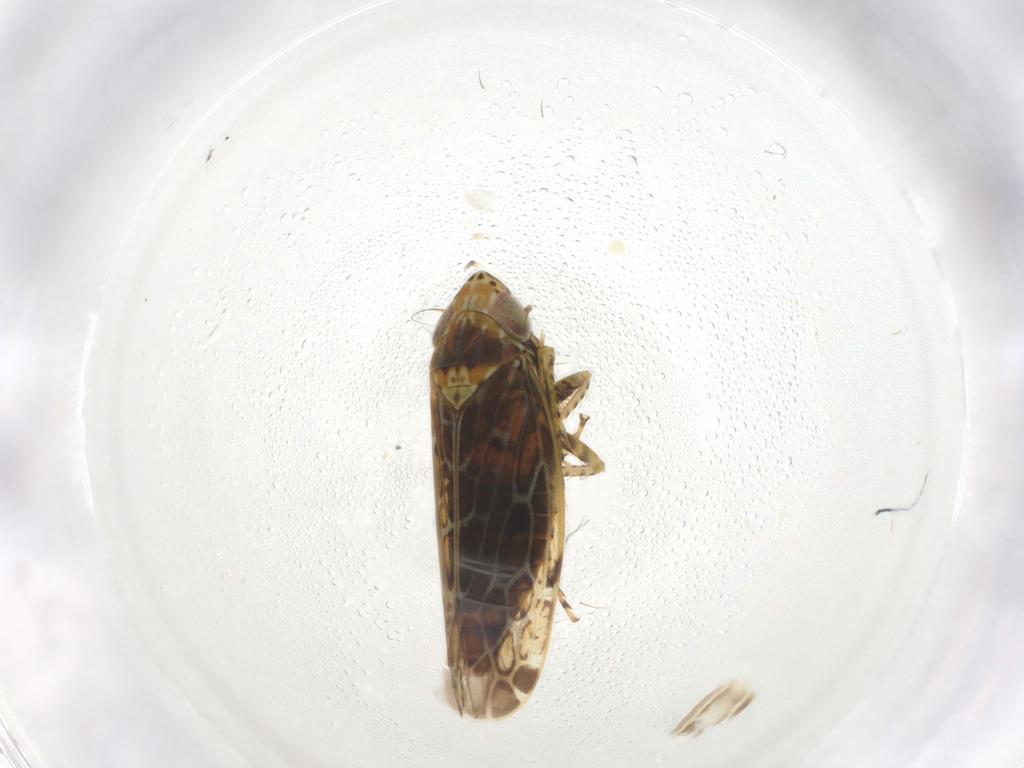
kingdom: Animalia
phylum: Arthropoda
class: Insecta
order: Hemiptera
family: Cicadellidae
